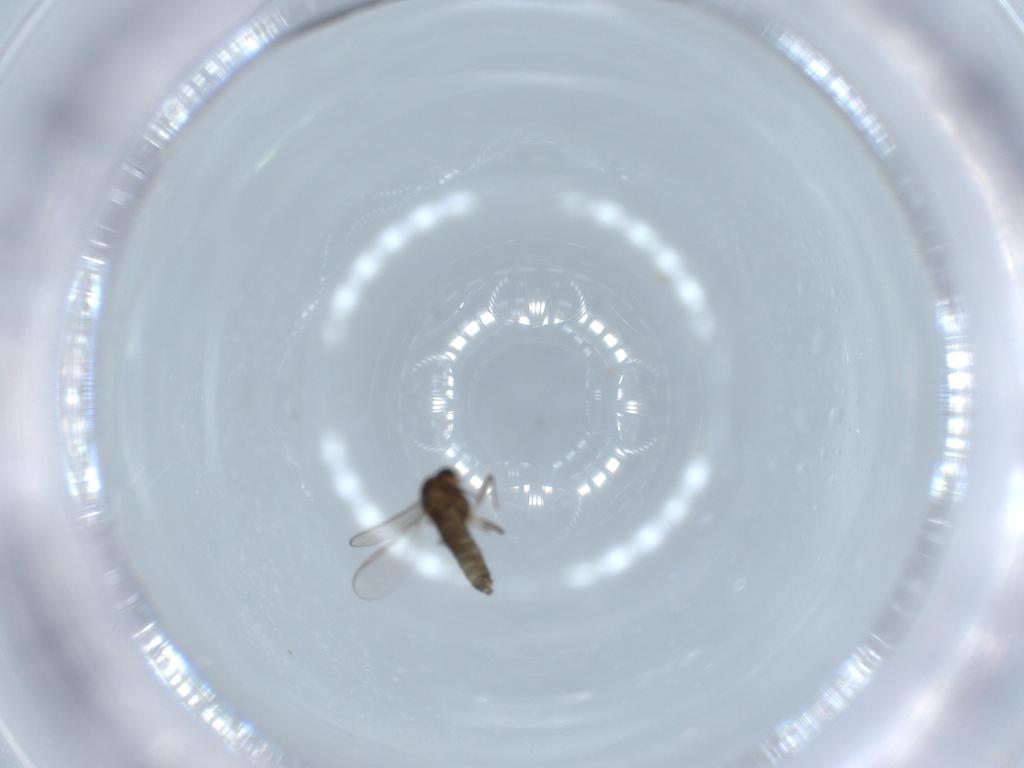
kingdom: Animalia
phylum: Arthropoda
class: Insecta
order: Diptera
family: Chironomidae
